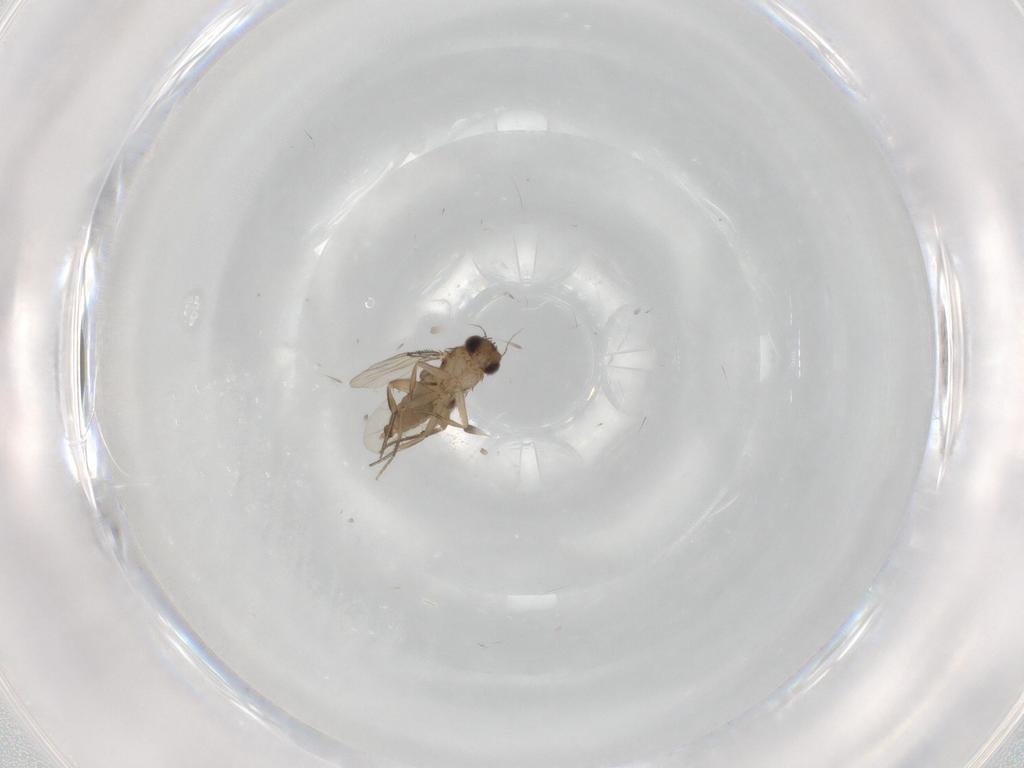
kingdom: Animalia
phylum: Arthropoda
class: Insecta
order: Diptera
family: Phoridae
